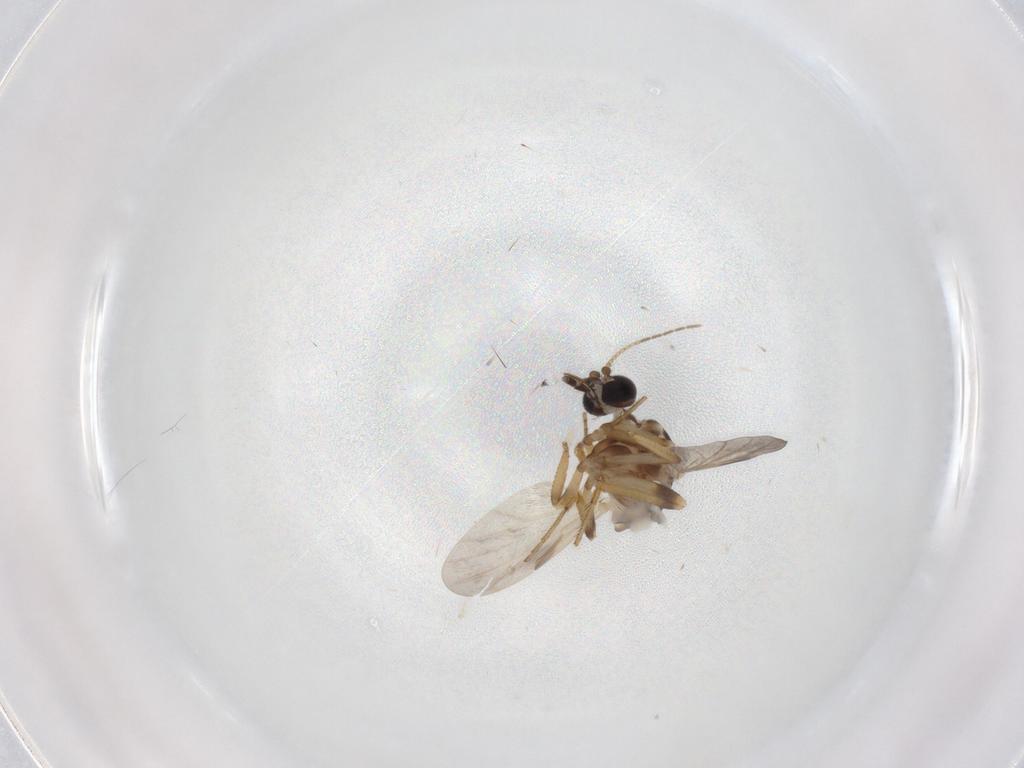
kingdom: Animalia
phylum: Arthropoda
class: Insecta
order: Diptera
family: Ceratopogonidae
